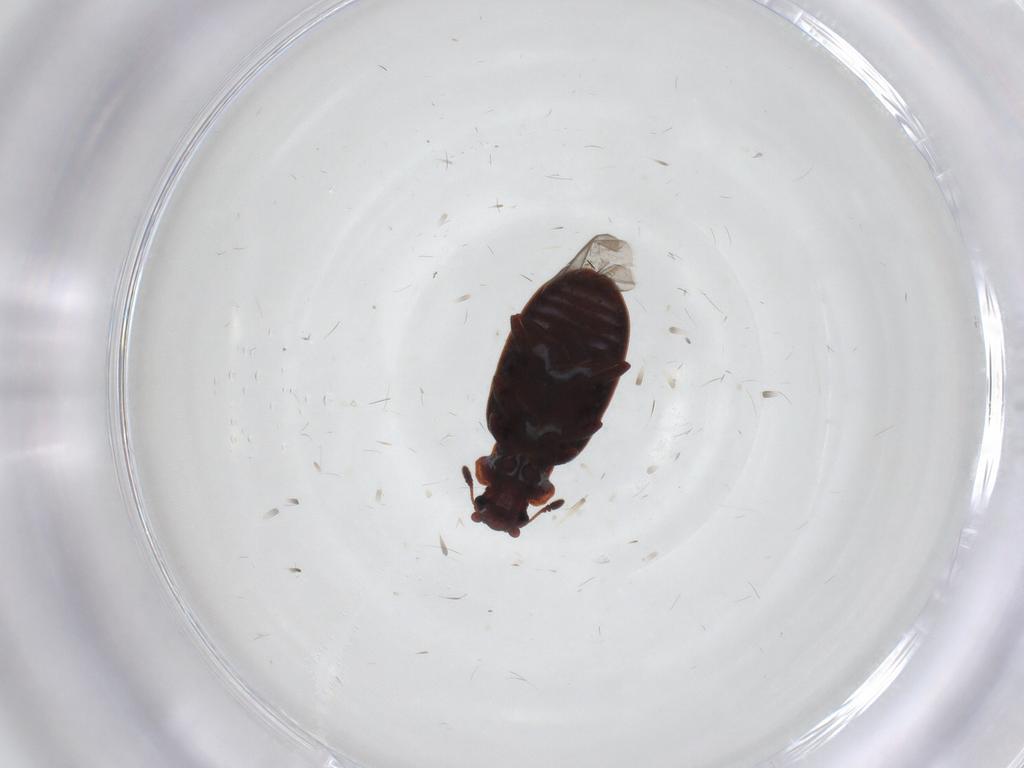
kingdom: Animalia
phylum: Arthropoda
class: Insecta
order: Coleoptera
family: Latridiidae
